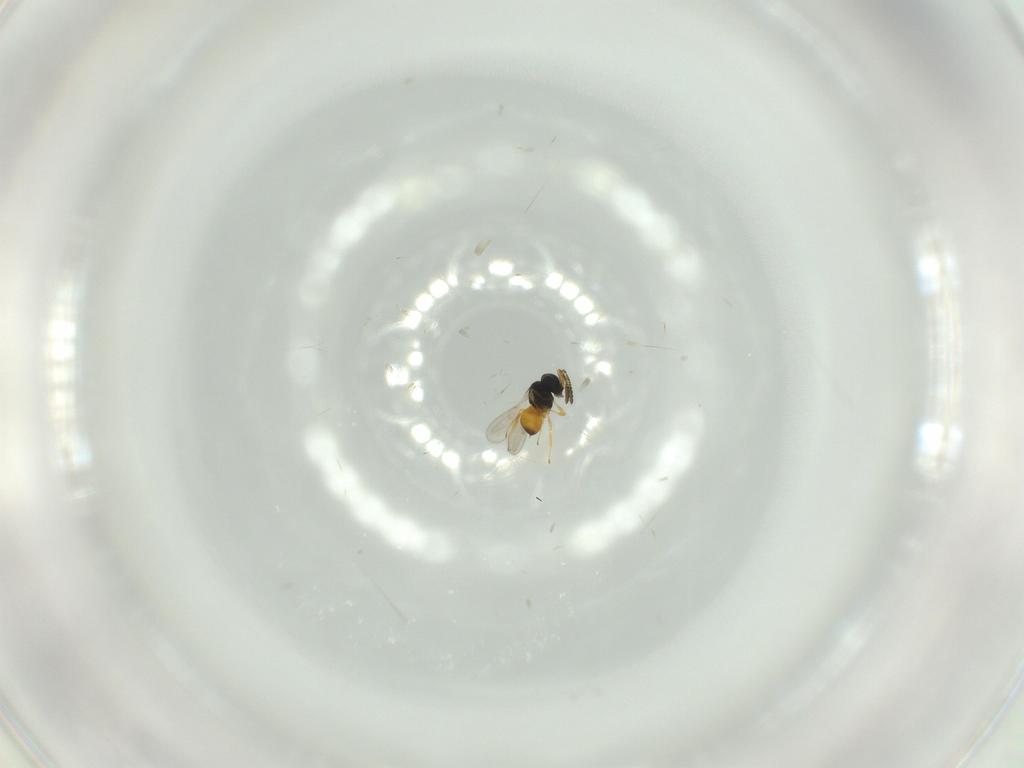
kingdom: Animalia
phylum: Arthropoda
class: Insecta
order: Hymenoptera
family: Scelionidae
